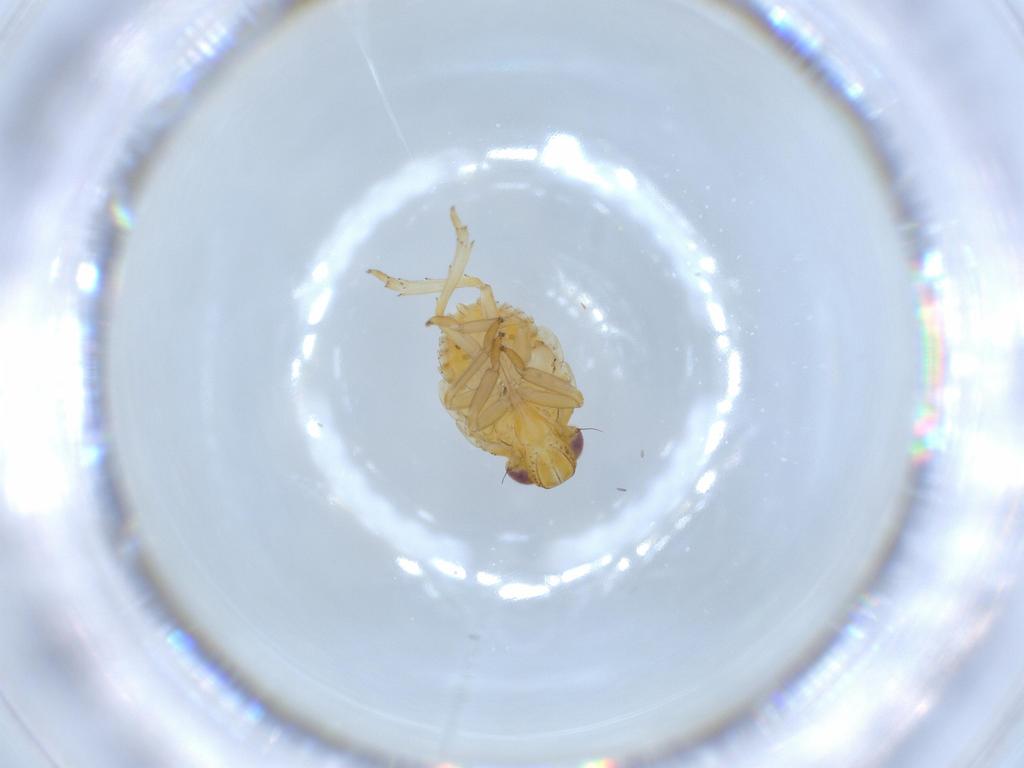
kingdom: Animalia
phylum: Arthropoda
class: Insecta
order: Hemiptera
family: Issidae
